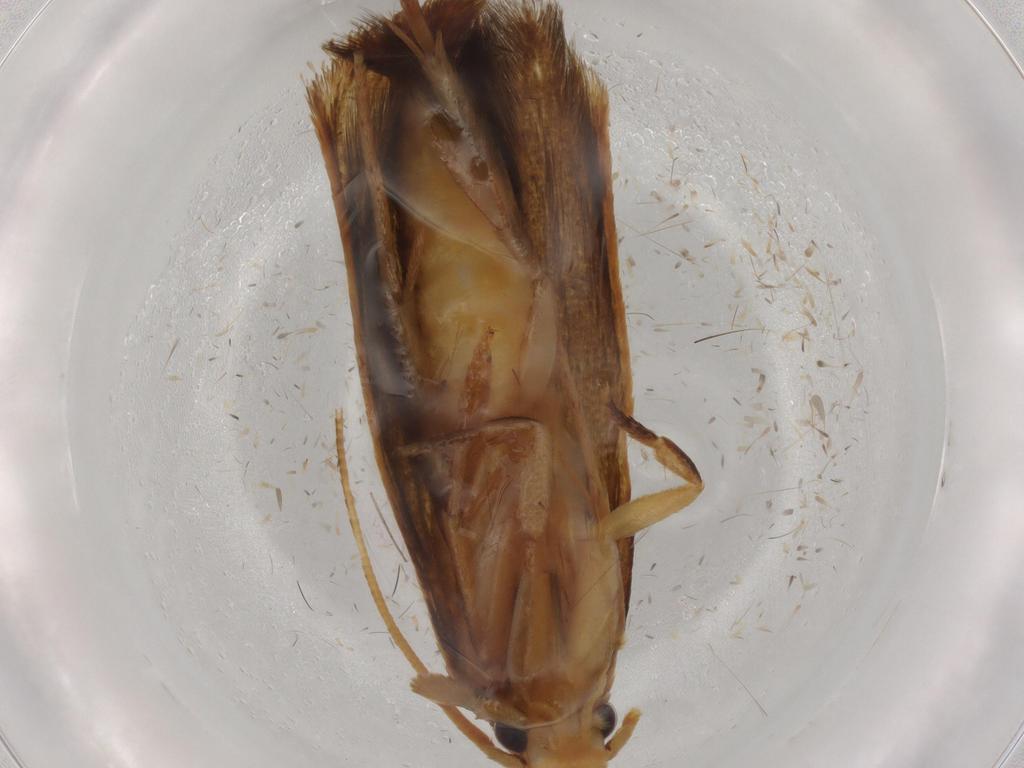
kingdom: Animalia
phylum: Arthropoda
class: Insecta
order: Lepidoptera
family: Tineidae
